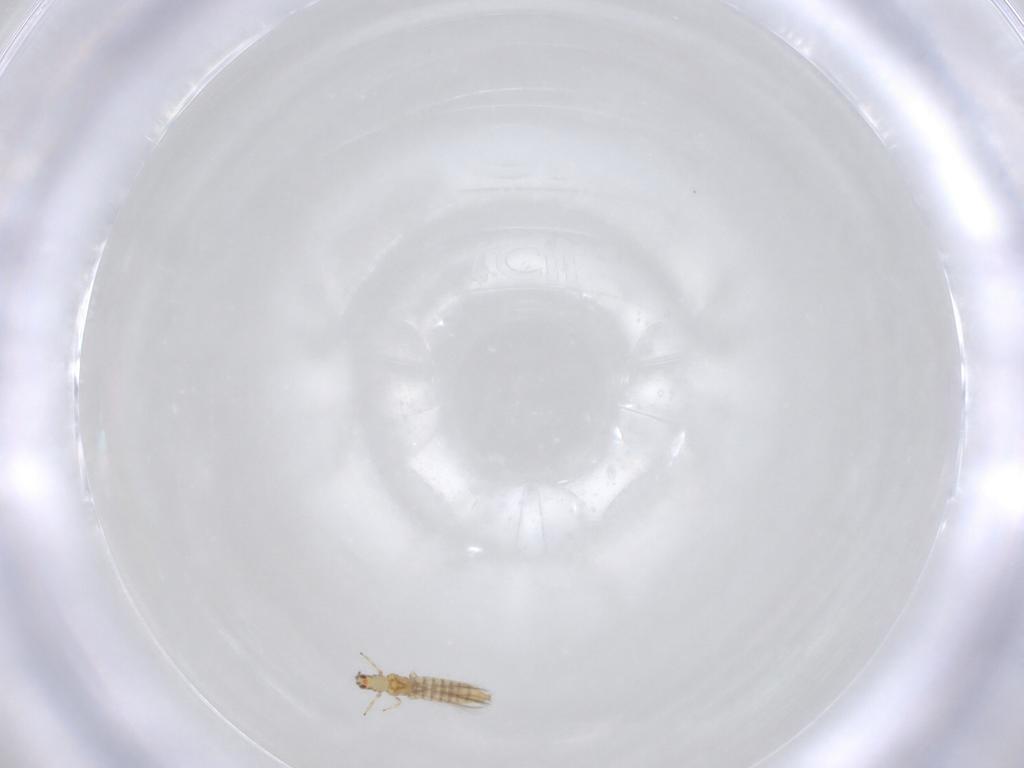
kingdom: Animalia
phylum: Arthropoda
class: Insecta
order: Thysanoptera
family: Thripidae
